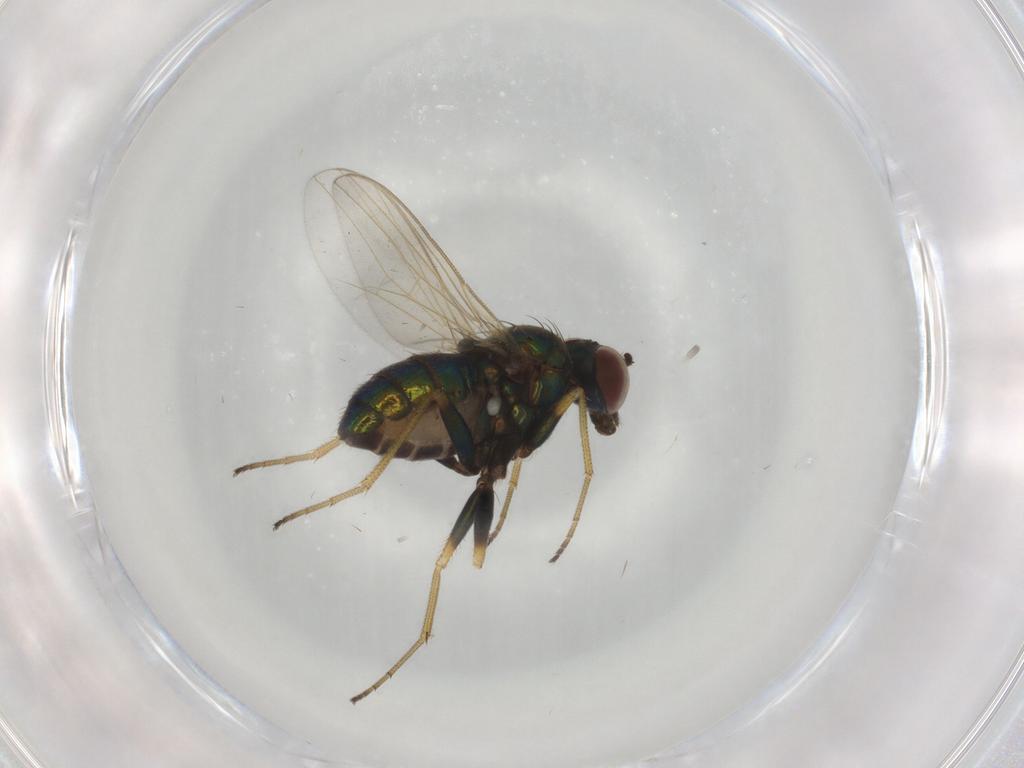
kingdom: Animalia
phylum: Arthropoda
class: Insecta
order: Diptera
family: Dolichopodidae
